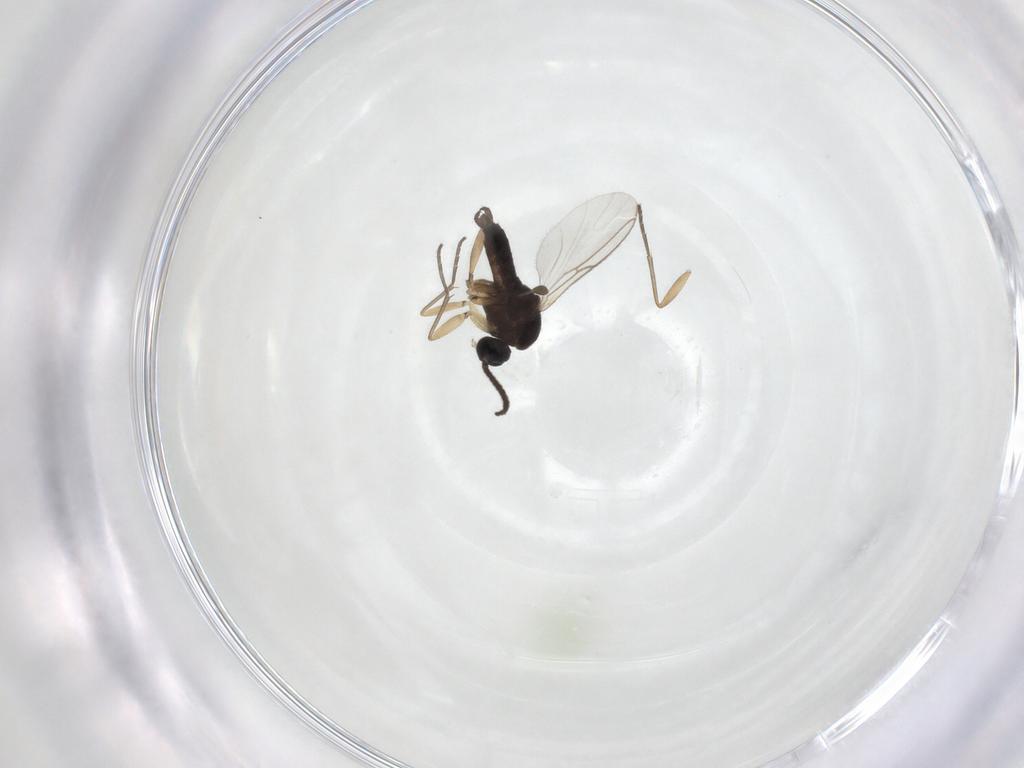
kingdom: Animalia
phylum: Arthropoda
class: Insecta
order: Diptera
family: Sciaridae
